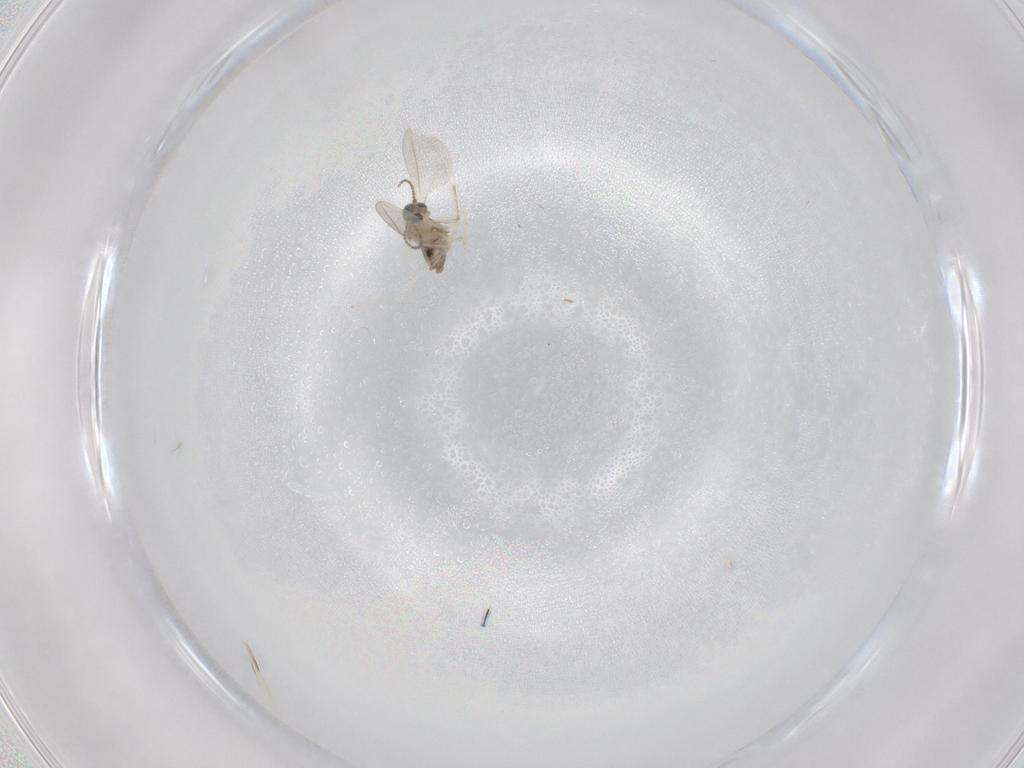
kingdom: Animalia
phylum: Arthropoda
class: Insecta
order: Diptera
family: Cecidomyiidae
